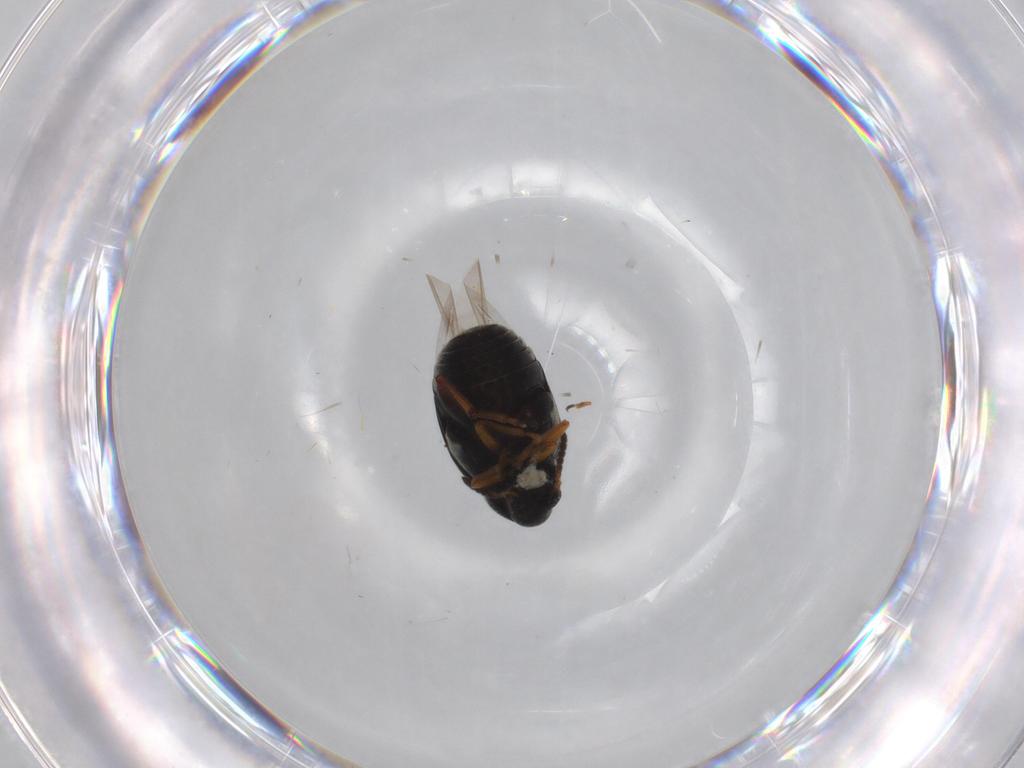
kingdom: Animalia
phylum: Arthropoda
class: Insecta
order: Coleoptera
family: Chrysomelidae
